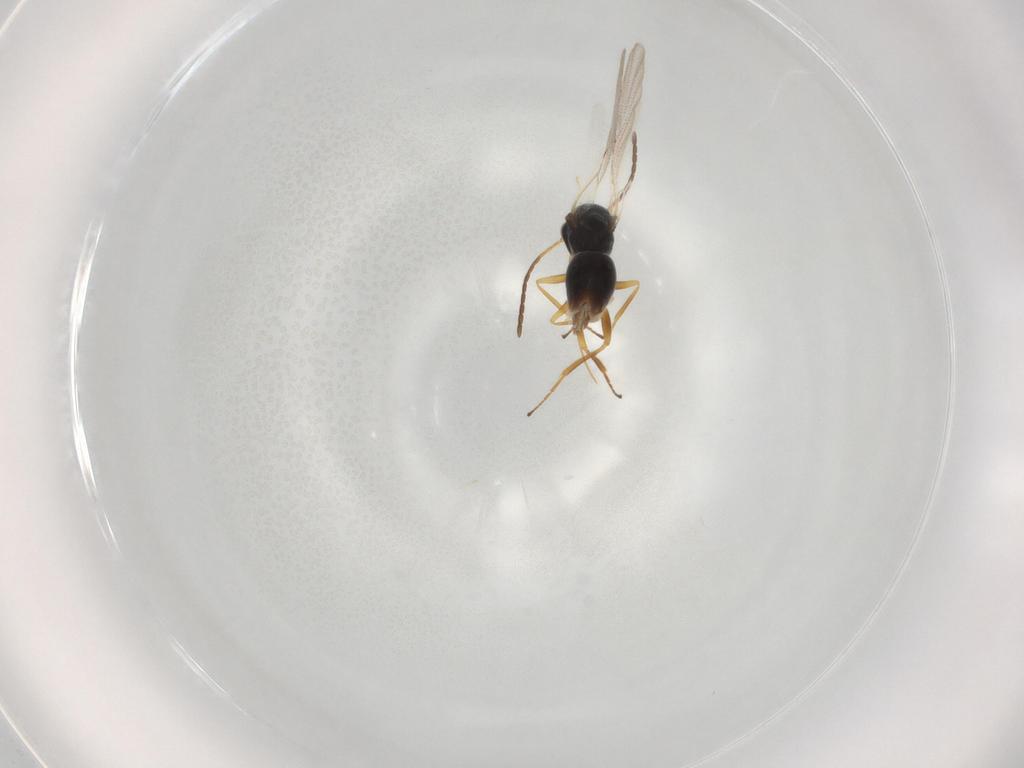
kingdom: Animalia
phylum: Arthropoda
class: Insecta
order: Hymenoptera
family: Figitidae
